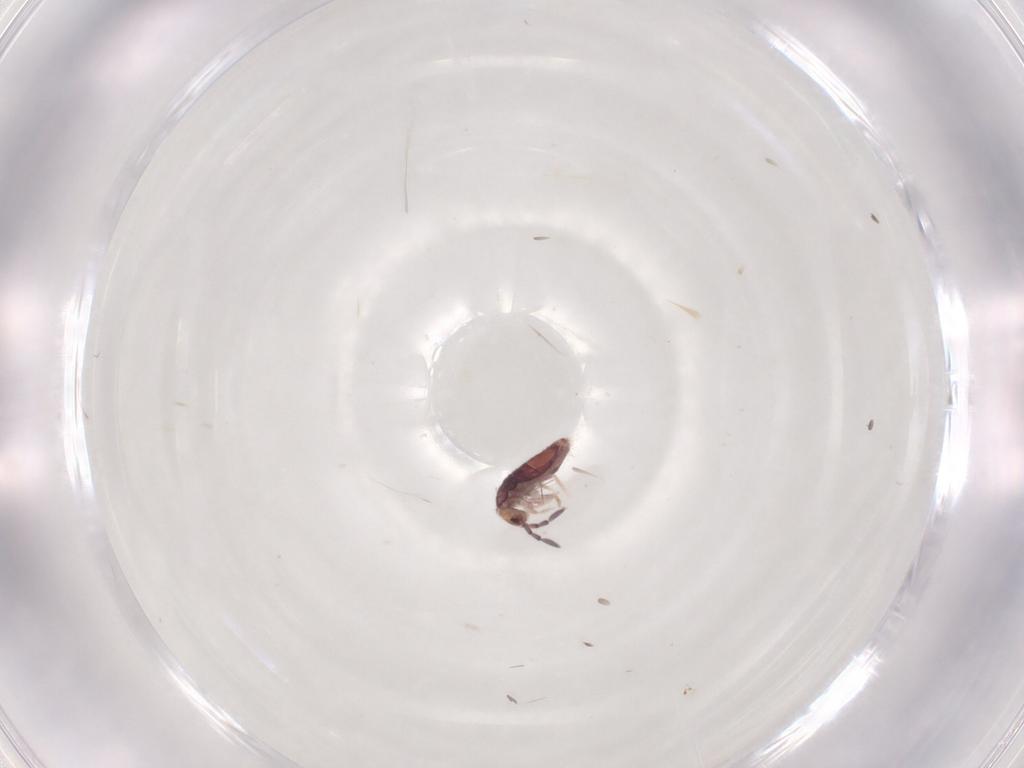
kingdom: Animalia
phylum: Arthropoda
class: Collembola
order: Entomobryomorpha
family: Entomobryidae
